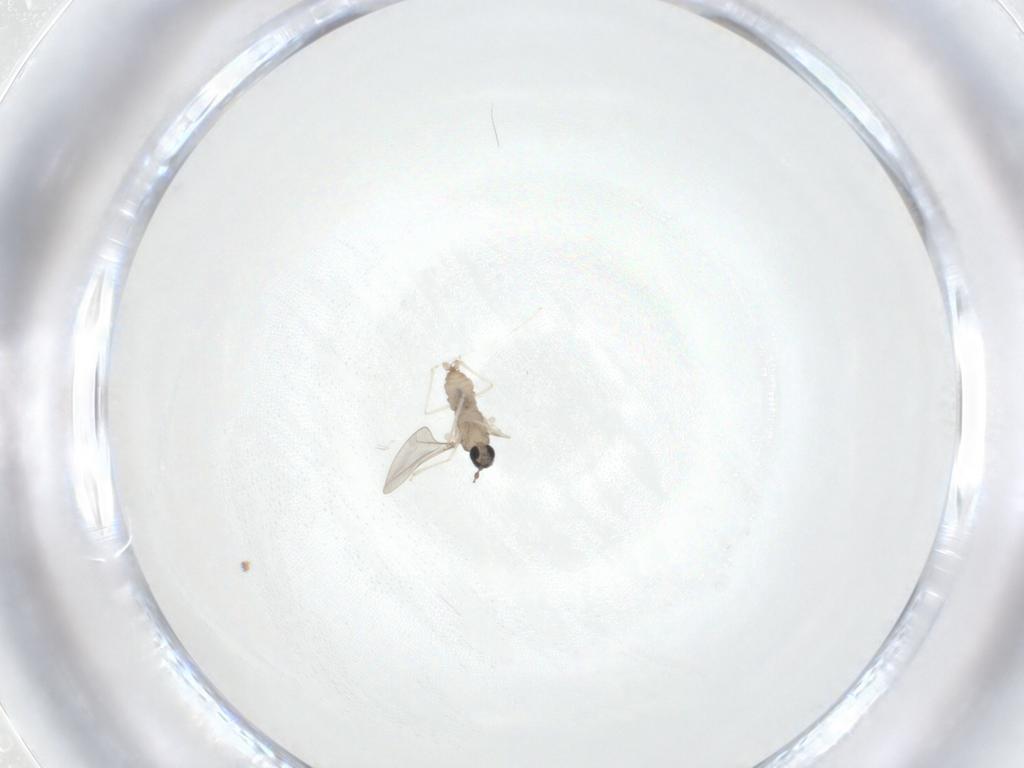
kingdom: Animalia
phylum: Arthropoda
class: Insecta
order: Diptera
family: Cecidomyiidae
